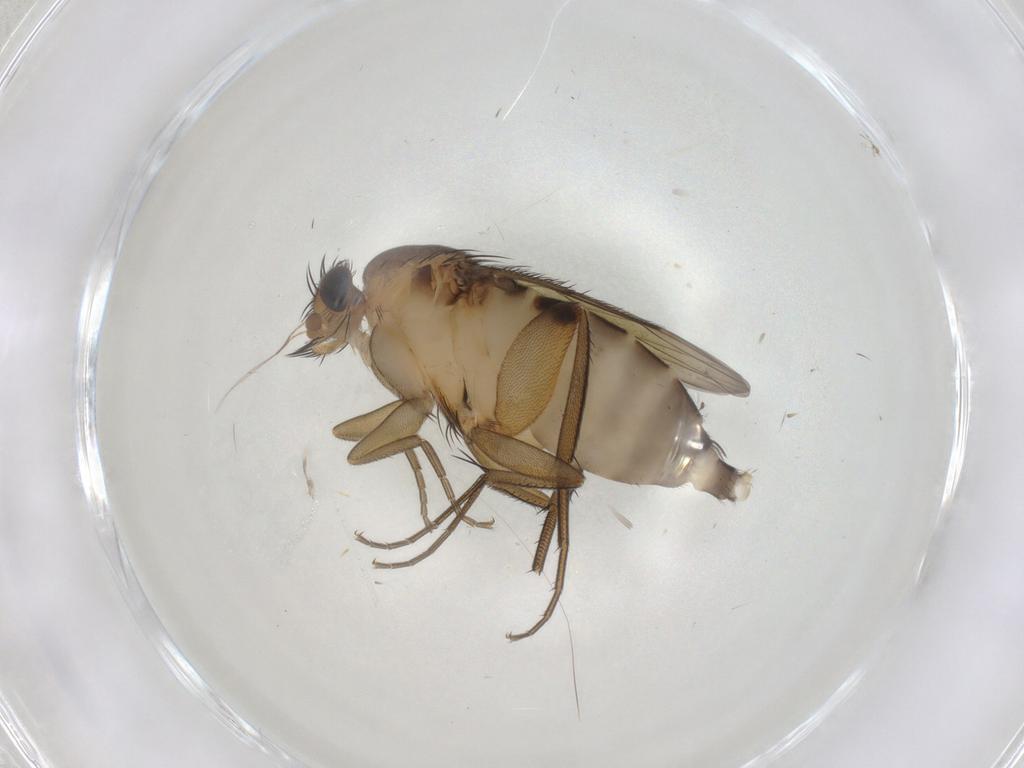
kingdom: Animalia
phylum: Arthropoda
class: Insecta
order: Diptera
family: Phoridae
